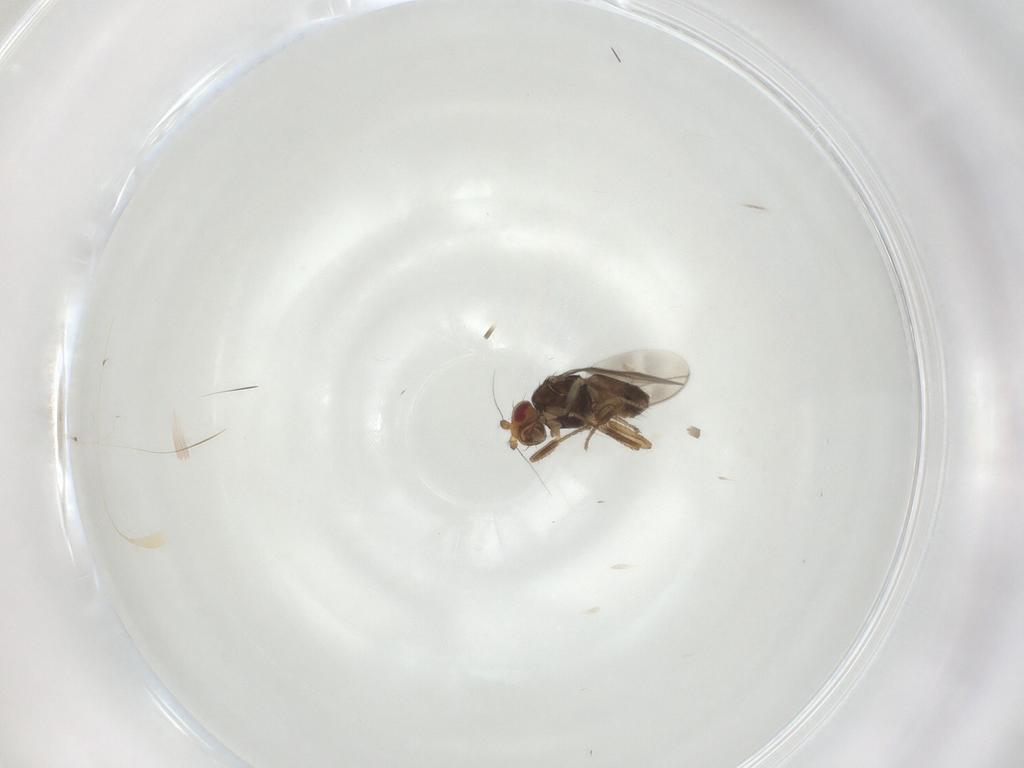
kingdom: Animalia
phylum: Arthropoda
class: Insecta
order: Diptera
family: Sphaeroceridae
